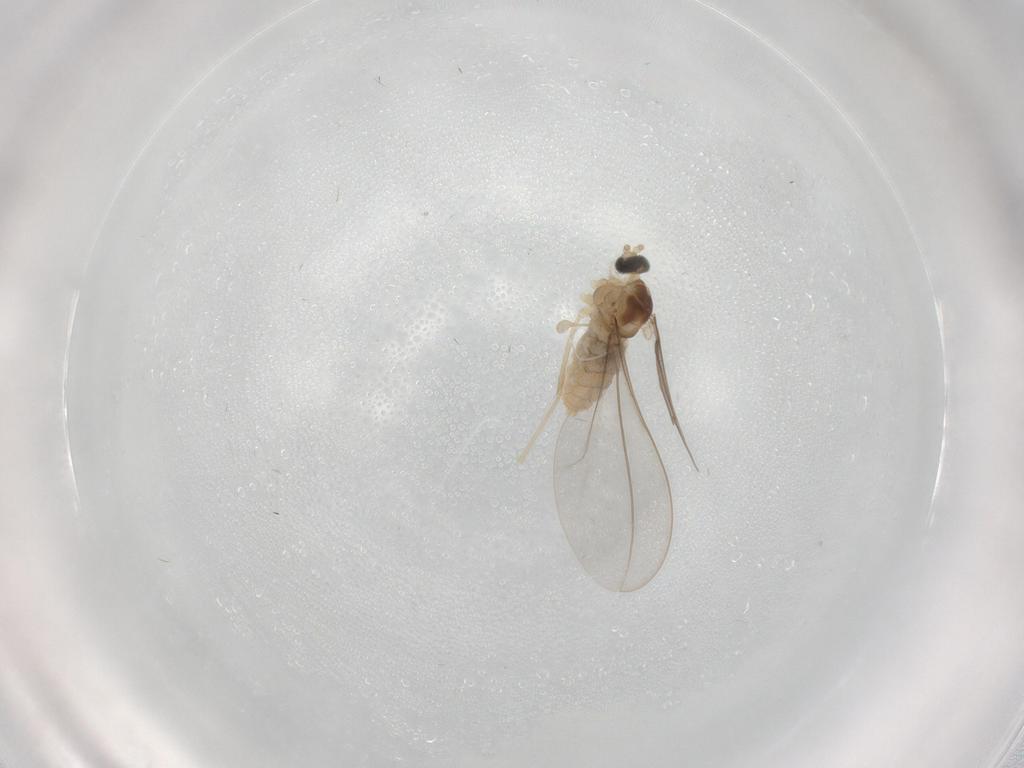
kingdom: Animalia
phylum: Arthropoda
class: Insecta
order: Diptera
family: Cecidomyiidae
